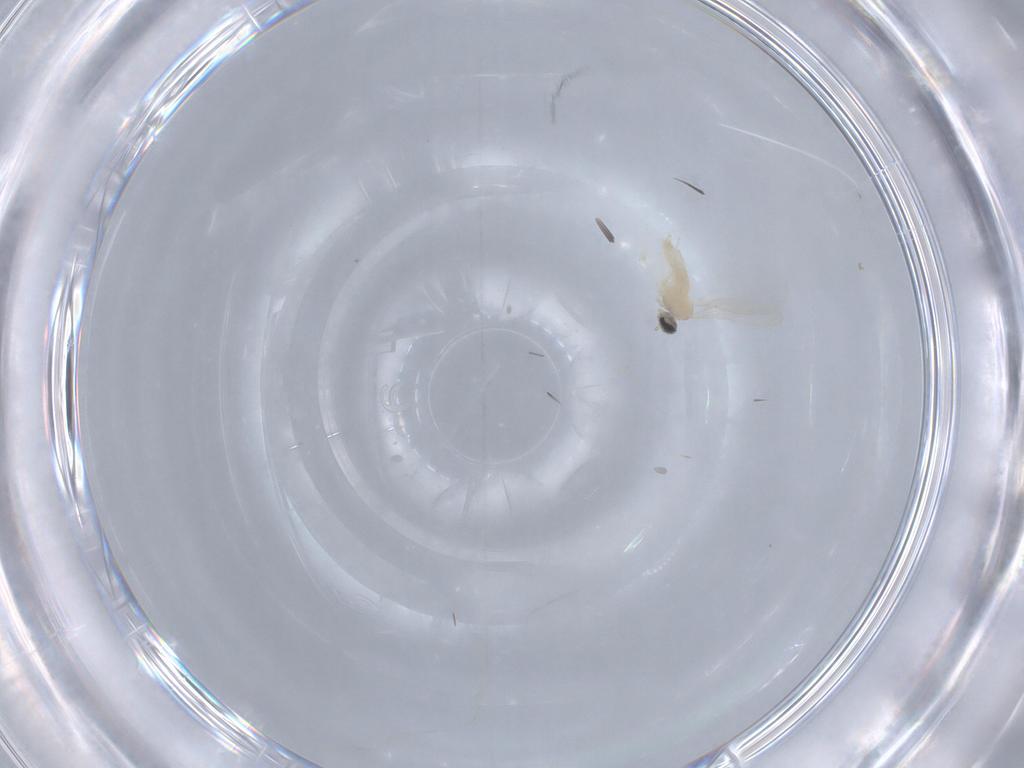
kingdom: Animalia
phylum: Arthropoda
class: Insecta
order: Diptera
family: Cecidomyiidae
